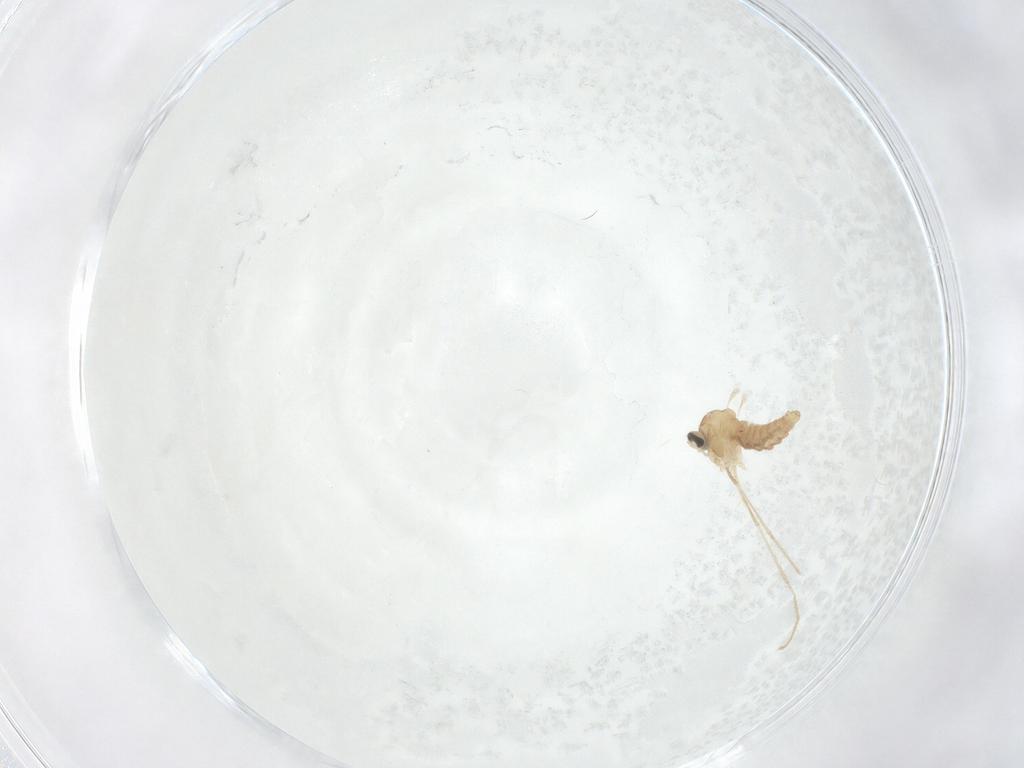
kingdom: Animalia
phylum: Arthropoda
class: Insecta
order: Diptera
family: Cecidomyiidae
